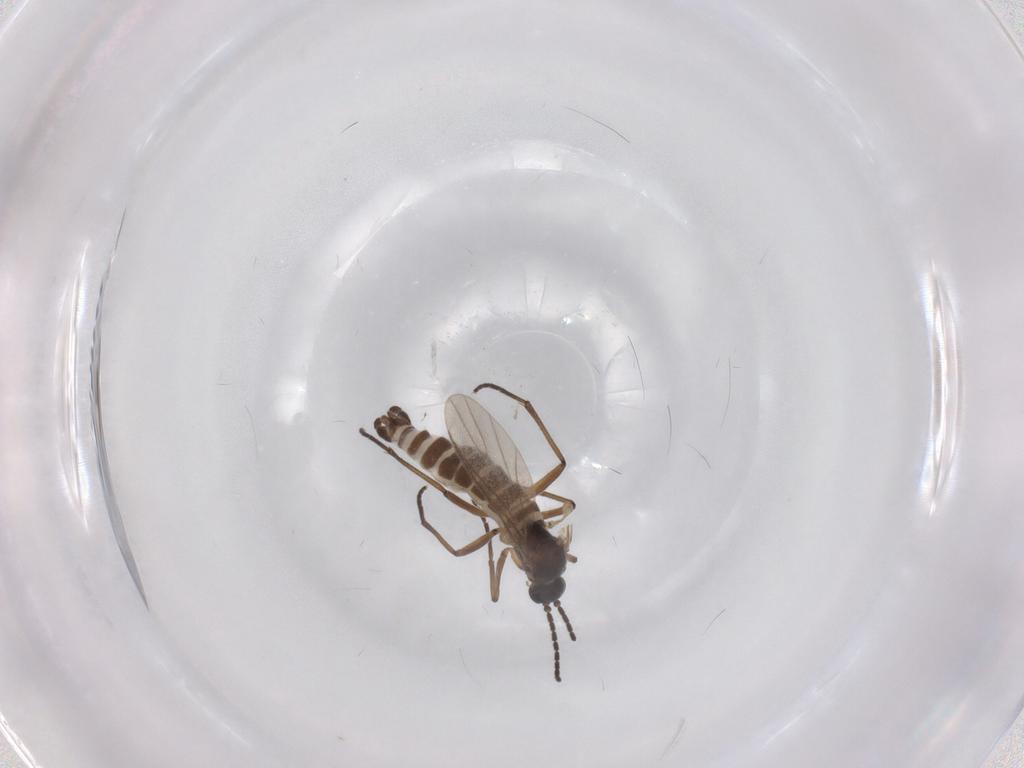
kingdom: Animalia
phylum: Arthropoda
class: Insecta
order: Diptera
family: Sciaridae
